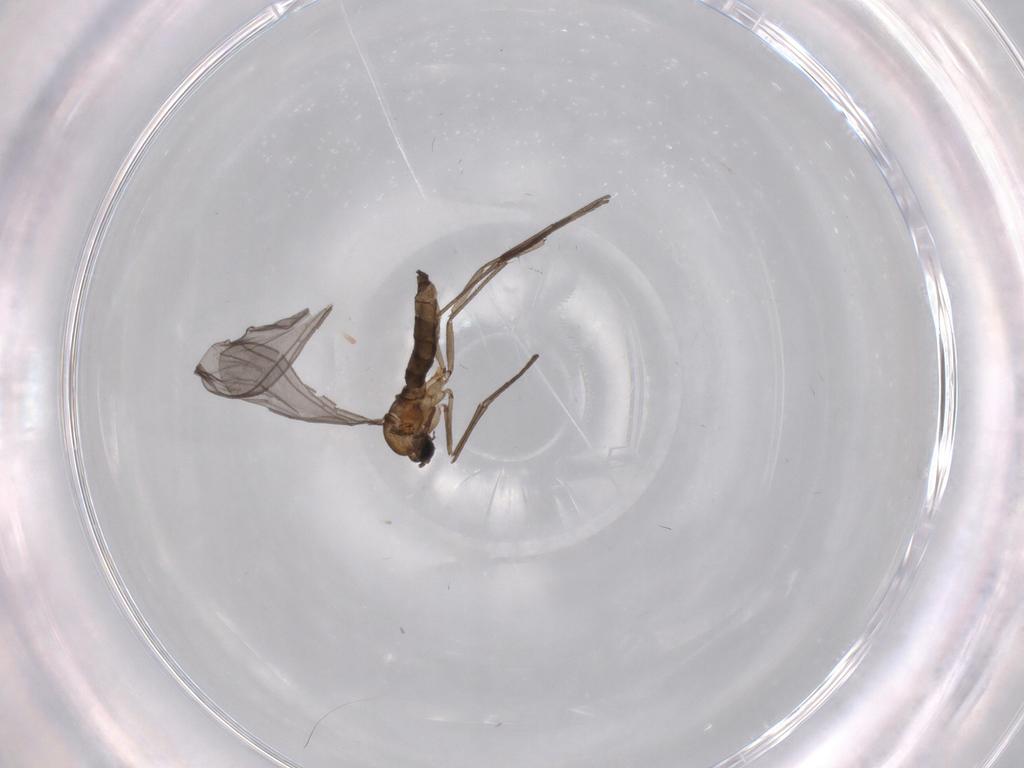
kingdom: Animalia
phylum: Arthropoda
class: Insecta
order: Diptera
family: Sciaridae
